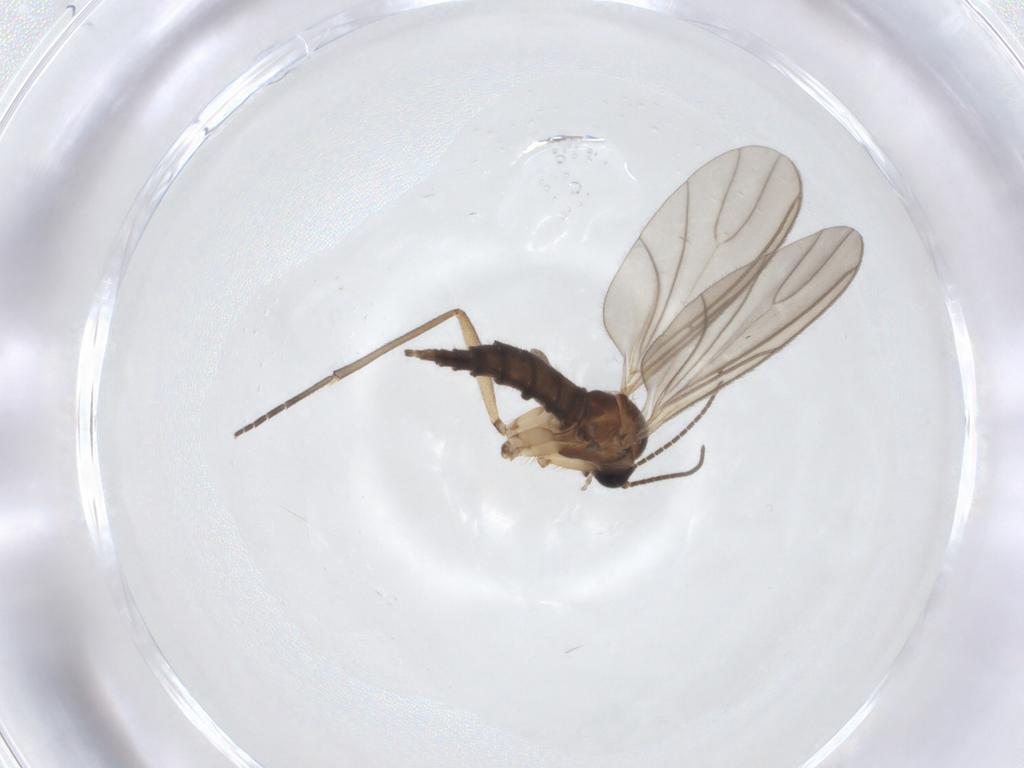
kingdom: Animalia
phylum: Arthropoda
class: Insecta
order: Diptera
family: Sciaridae
